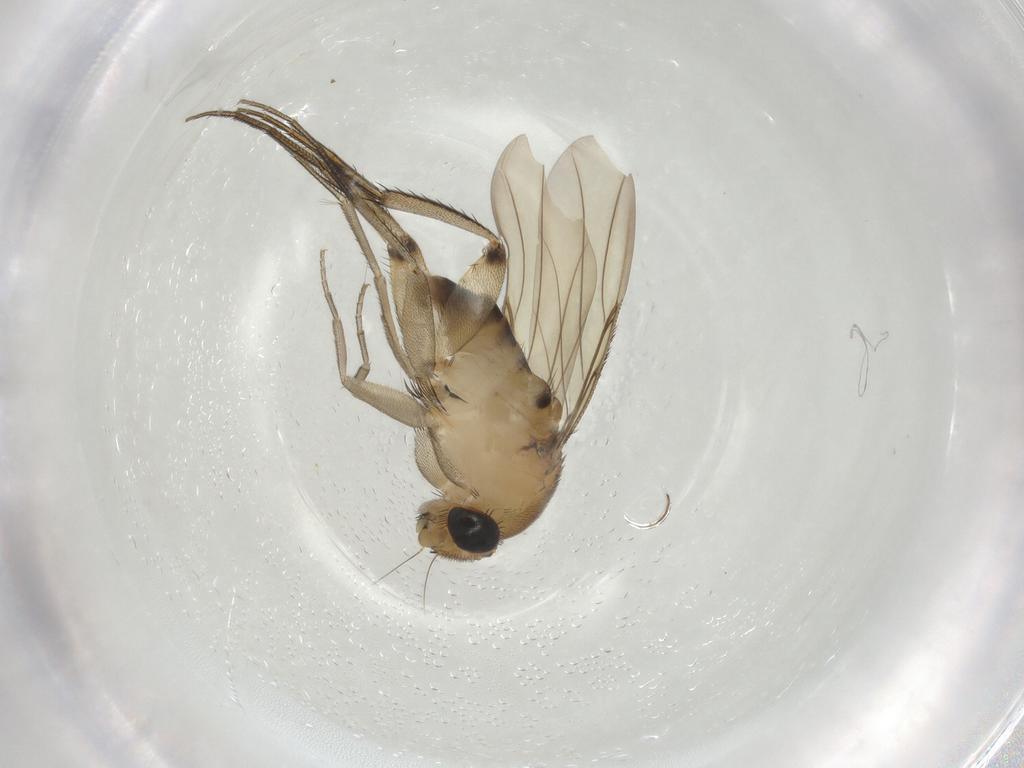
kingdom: Animalia
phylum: Arthropoda
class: Insecta
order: Diptera
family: Phoridae
